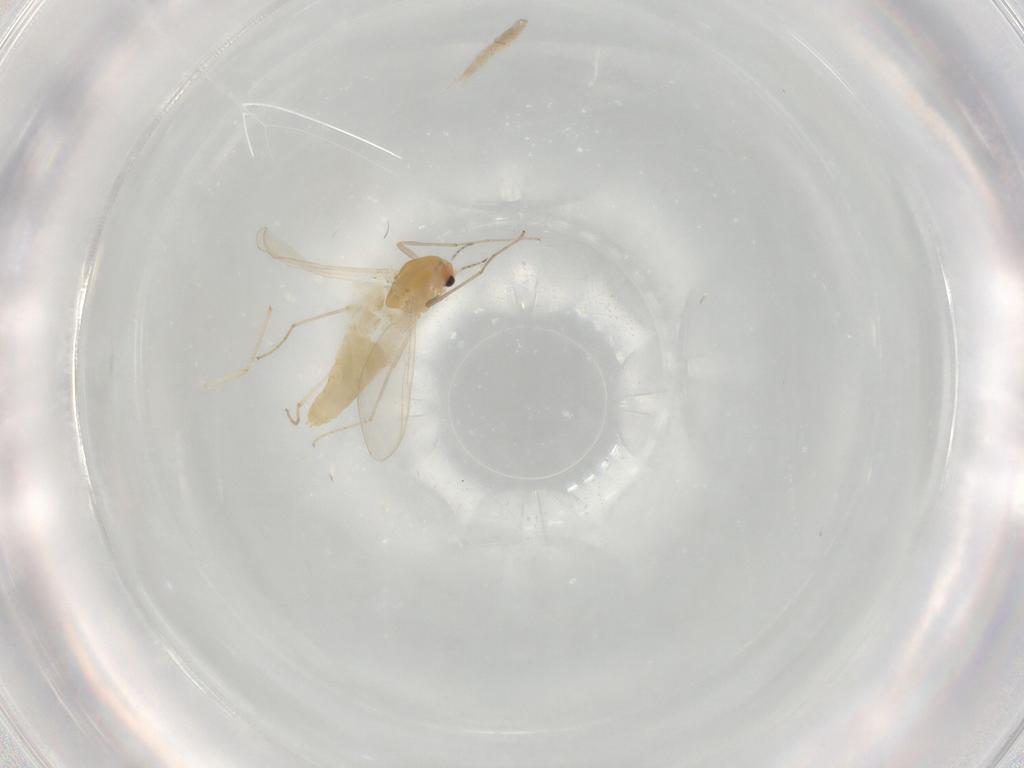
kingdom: Animalia
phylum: Arthropoda
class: Insecta
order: Diptera
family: Chironomidae
